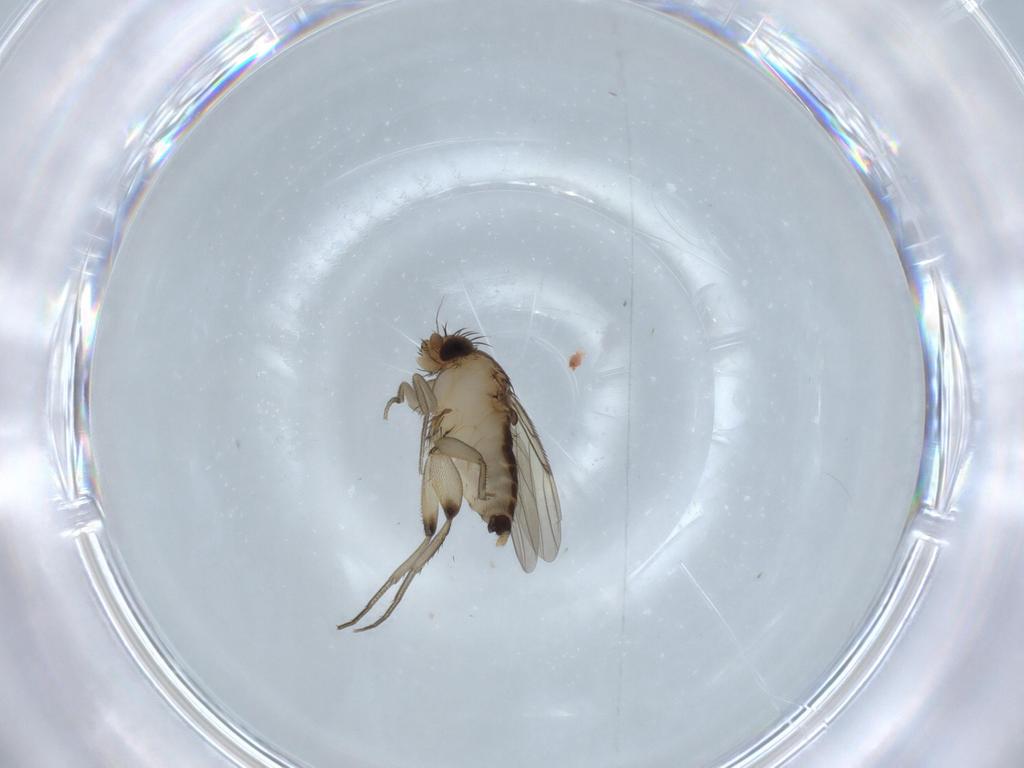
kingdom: Animalia
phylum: Arthropoda
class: Insecta
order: Diptera
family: Phoridae
